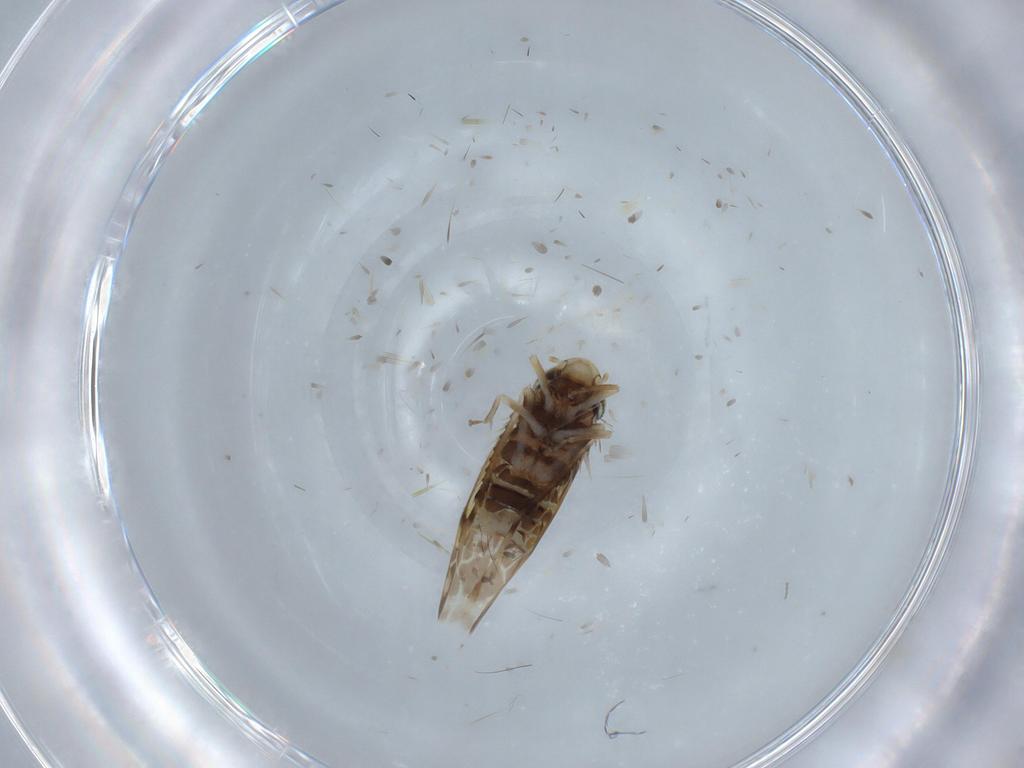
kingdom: Animalia
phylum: Arthropoda
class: Insecta
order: Hemiptera
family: Cicadellidae
